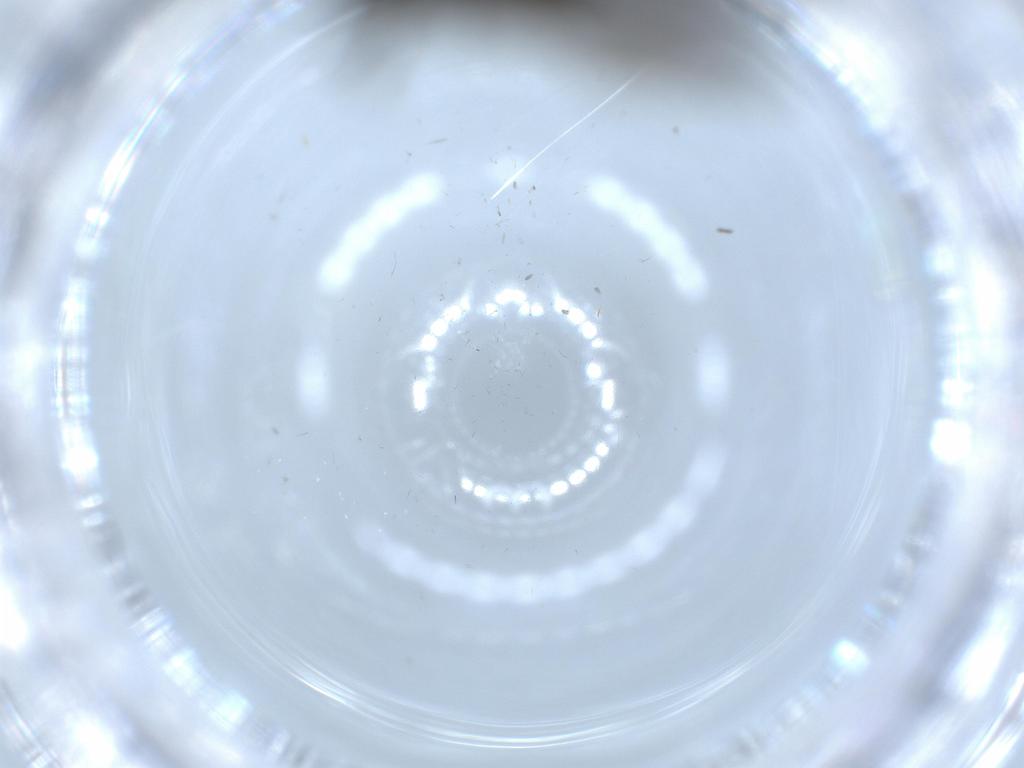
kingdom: Animalia
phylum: Arthropoda
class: Insecta
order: Diptera
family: Sciaridae
